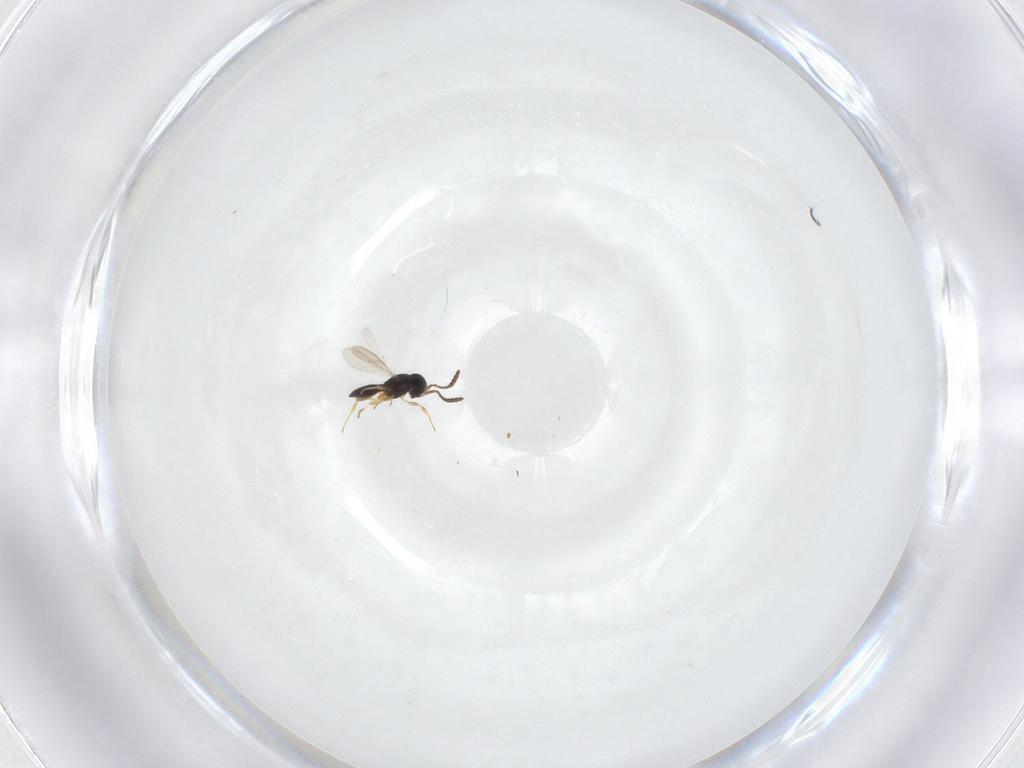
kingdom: Animalia
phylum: Arthropoda
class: Insecta
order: Hymenoptera
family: Scelionidae
